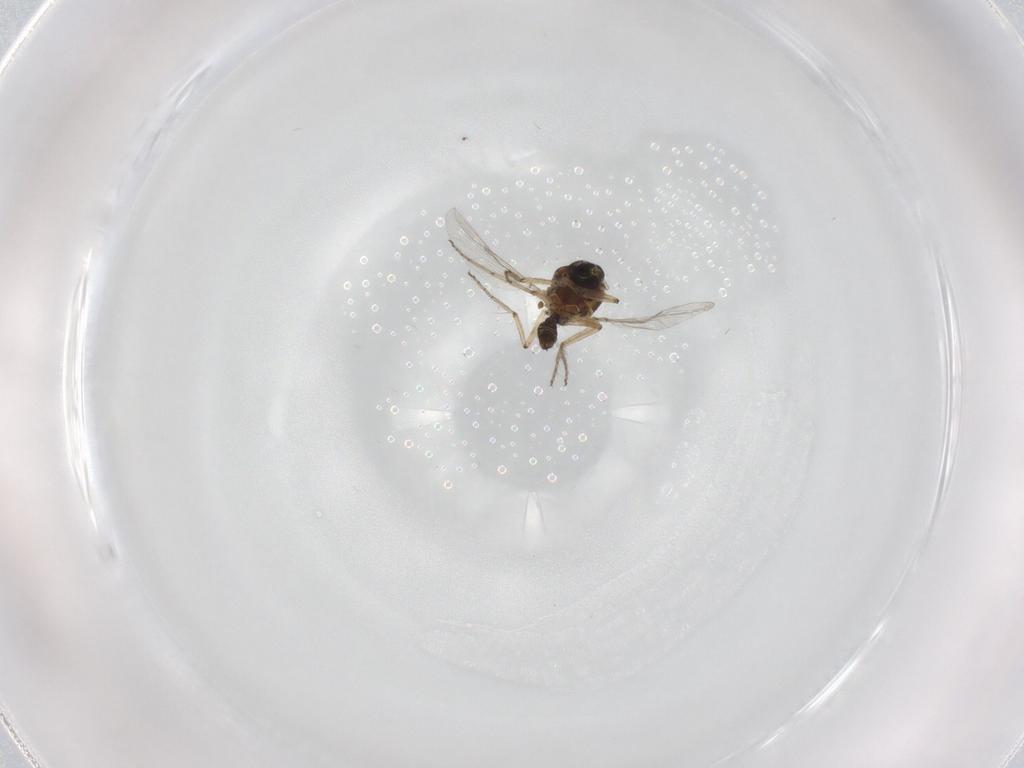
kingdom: Animalia
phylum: Arthropoda
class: Insecta
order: Diptera
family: Ceratopogonidae
